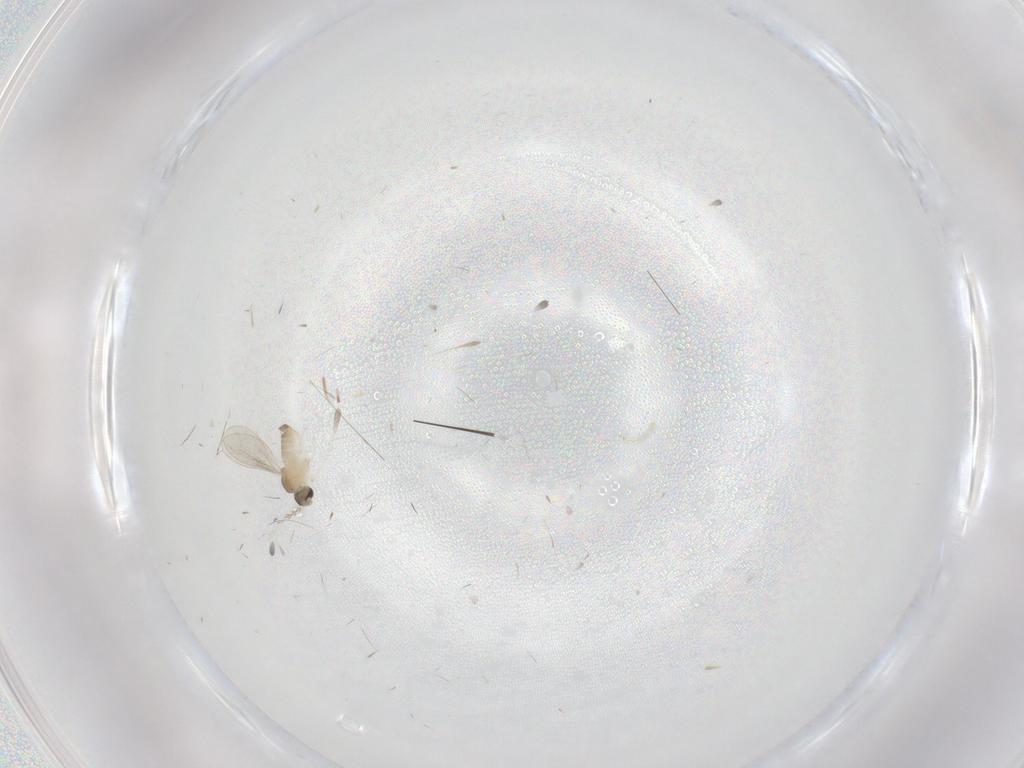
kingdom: Animalia
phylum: Arthropoda
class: Insecta
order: Diptera
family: Cecidomyiidae
